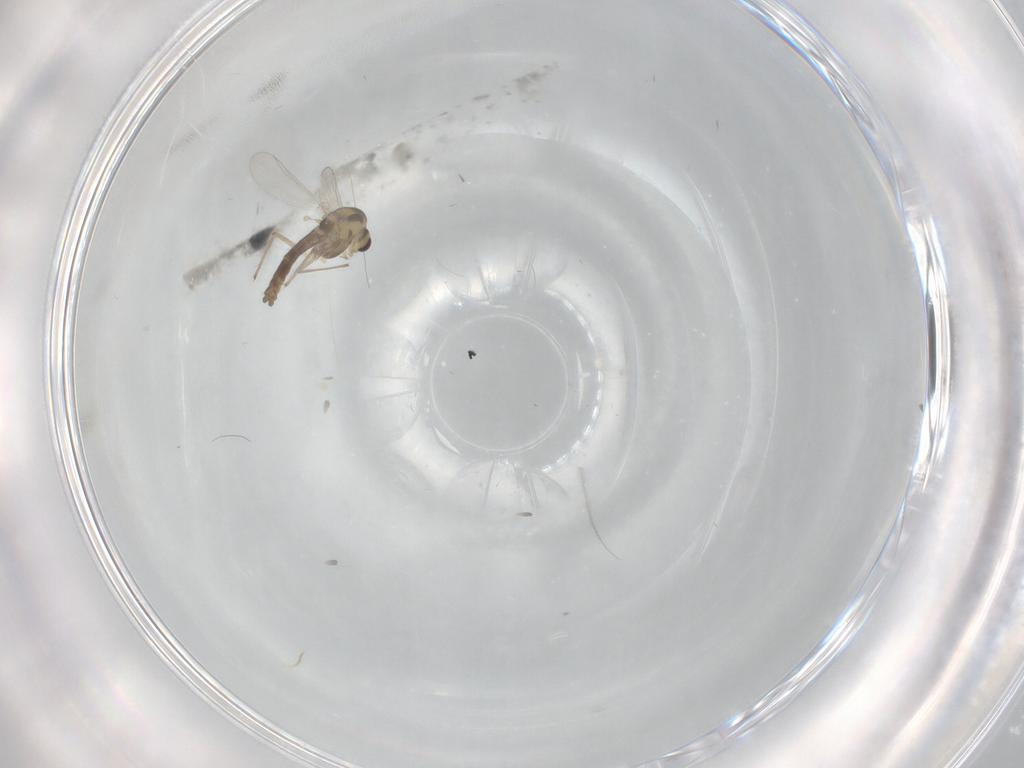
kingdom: Animalia
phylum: Arthropoda
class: Insecta
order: Diptera
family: Chironomidae
